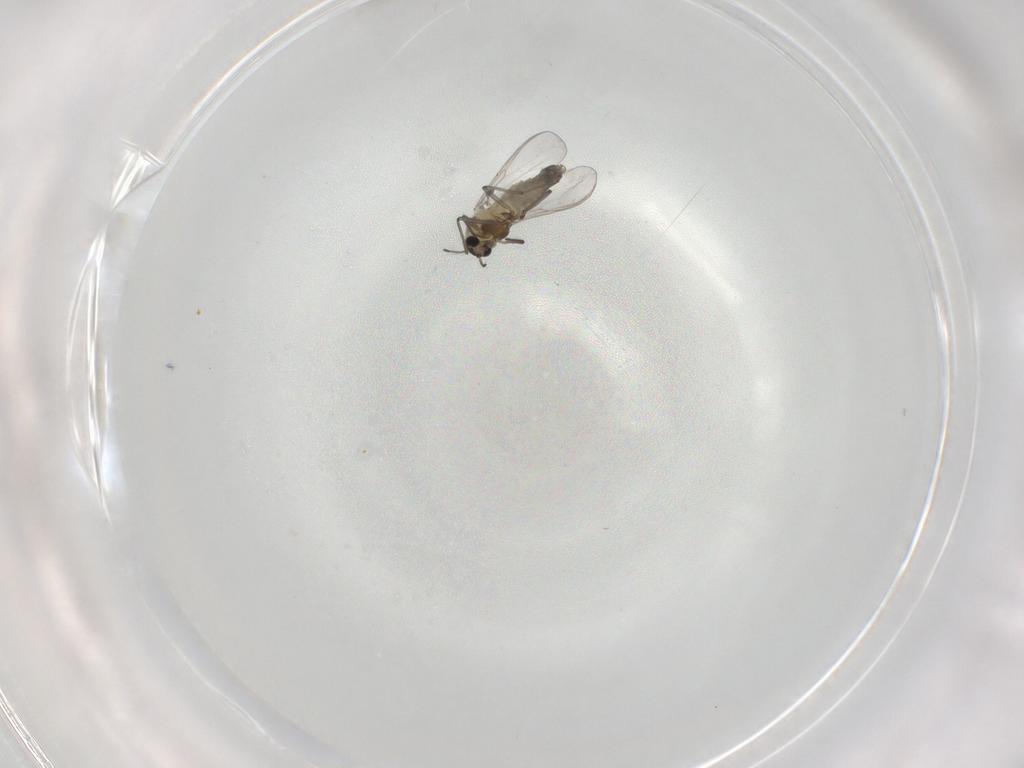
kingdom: Animalia
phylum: Arthropoda
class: Insecta
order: Diptera
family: Chironomidae
